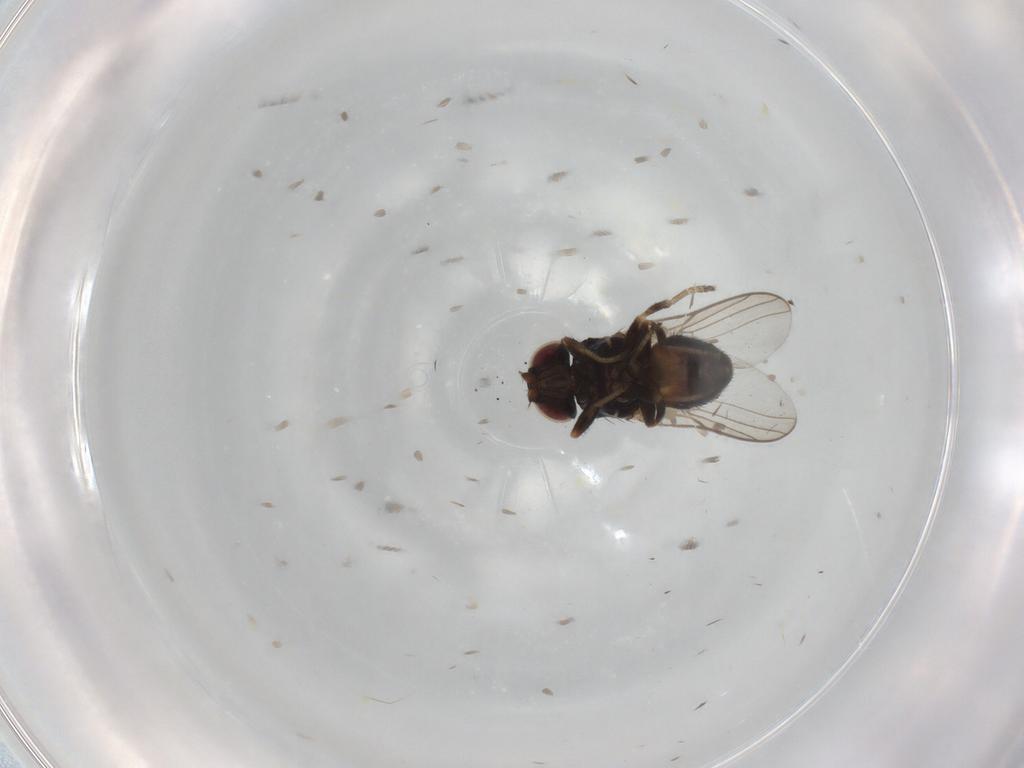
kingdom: Animalia
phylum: Arthropoda
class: Insecta
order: Diptera
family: Chloropidae
